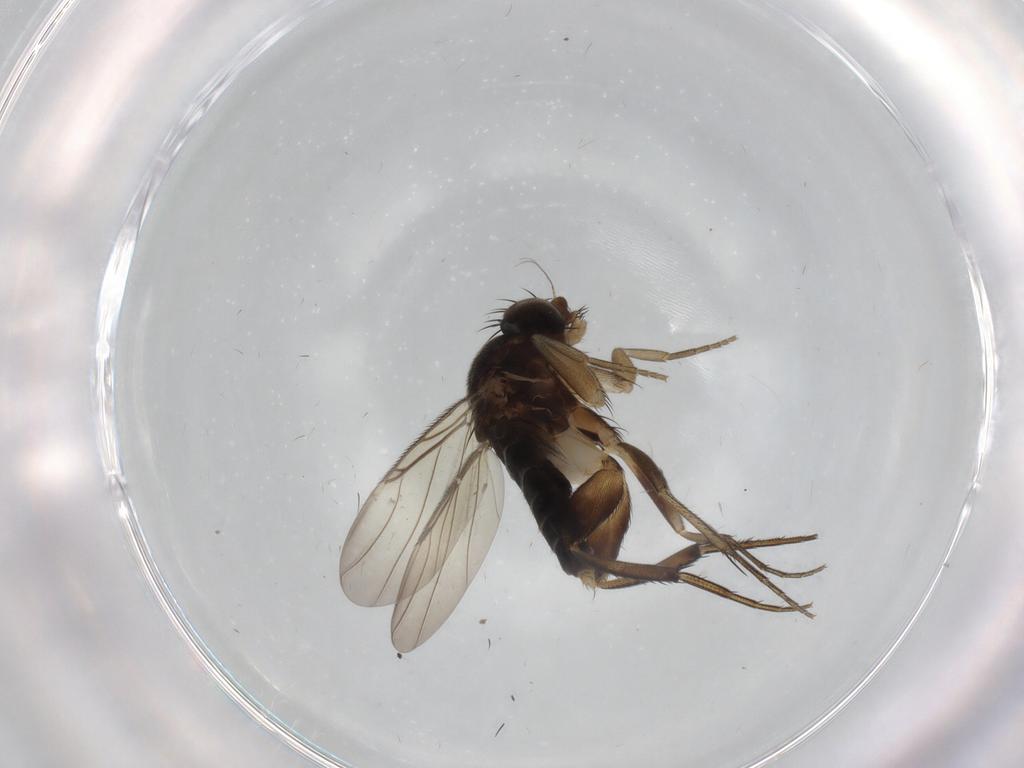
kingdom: Animalia
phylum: Arthropoda
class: Insecta
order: Diptera
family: Phoridae
